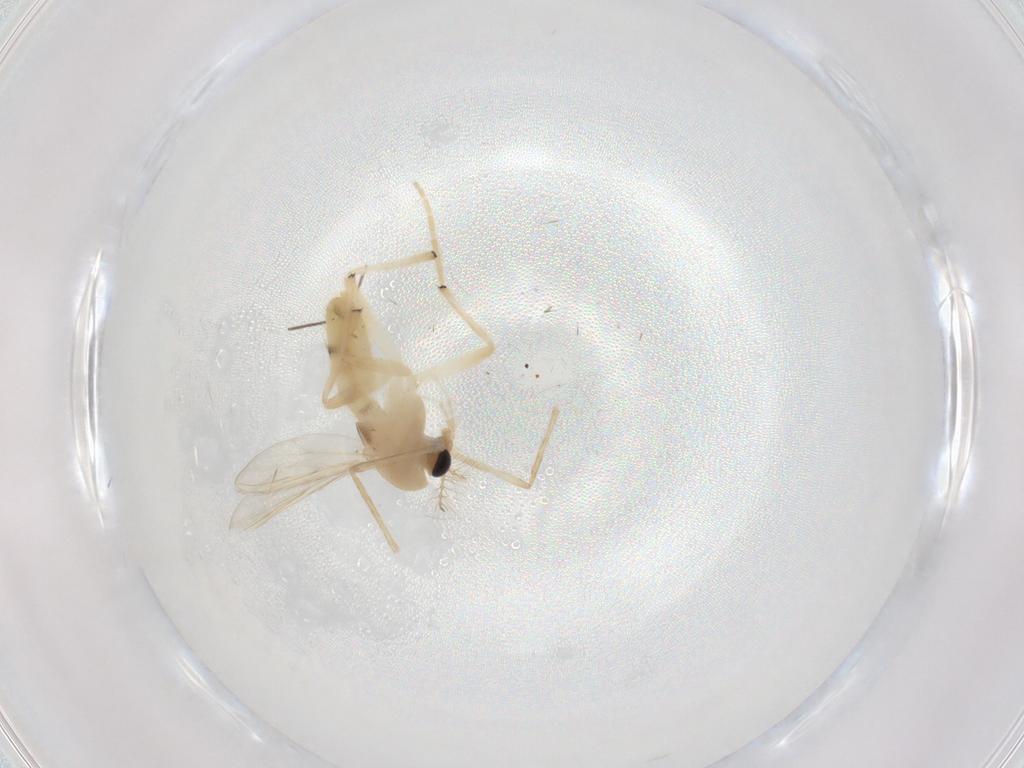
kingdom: Animalia
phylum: Arthropoda
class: Insecta
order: Diptera
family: Chironomidae
